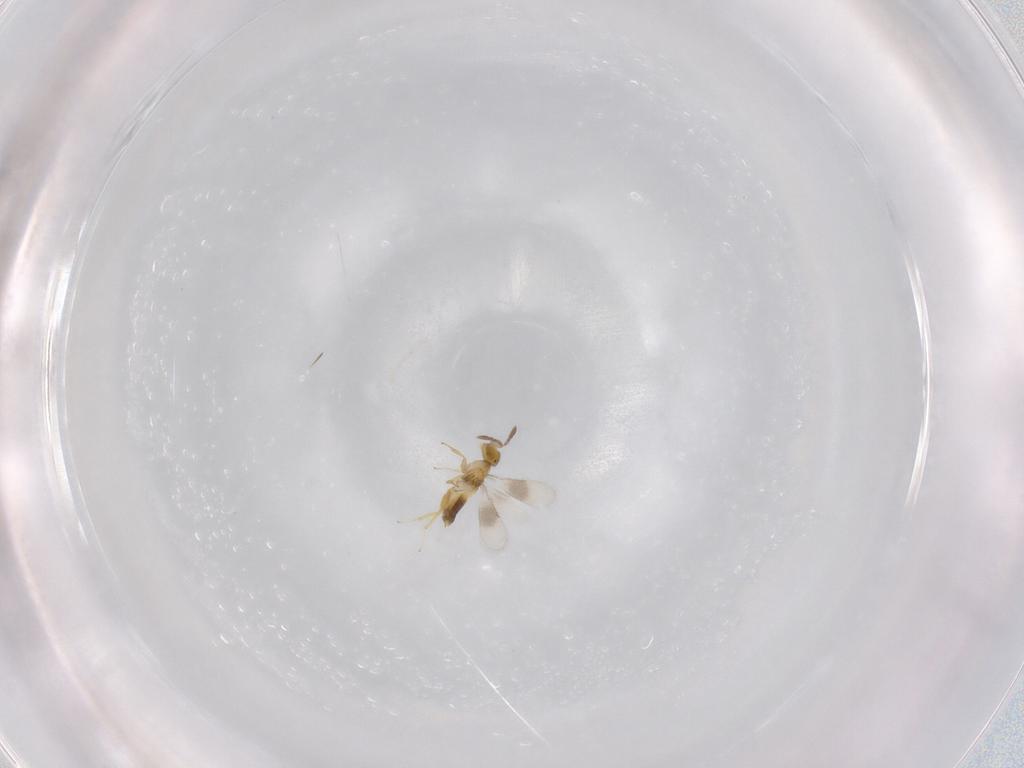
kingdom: Animalia
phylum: Arthropoda
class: Insecta
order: Hymenoptera
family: Encyrtidae
